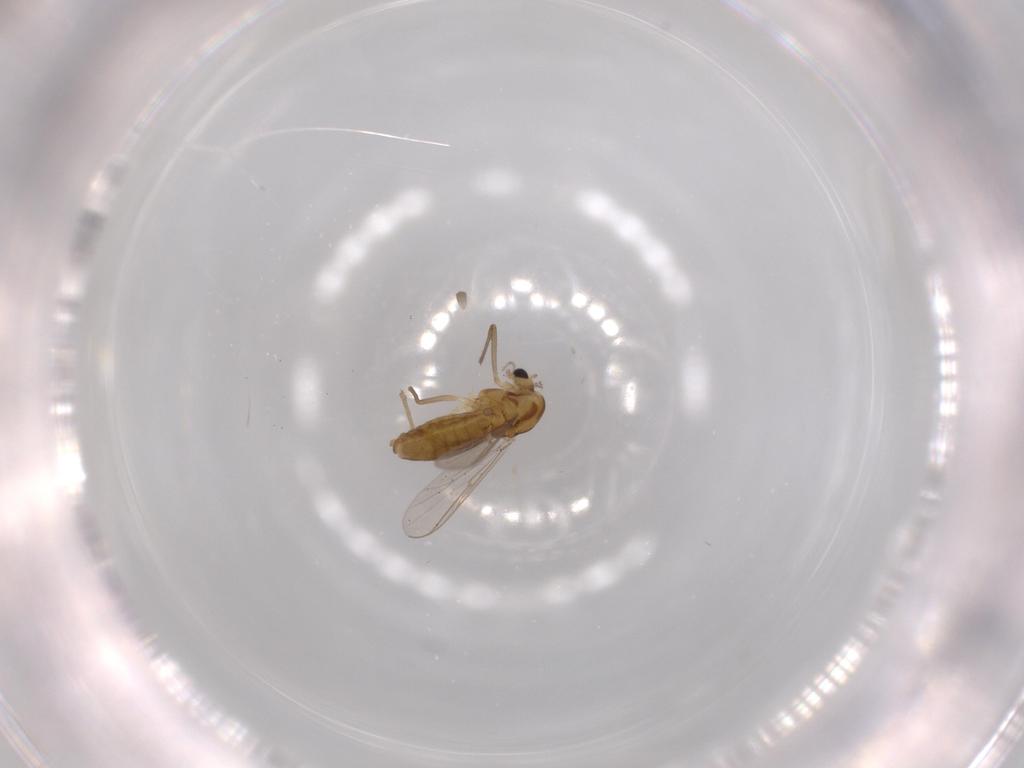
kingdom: Animalia
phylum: Arthropoda
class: Insecta
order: Diptera
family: Chironomidae
